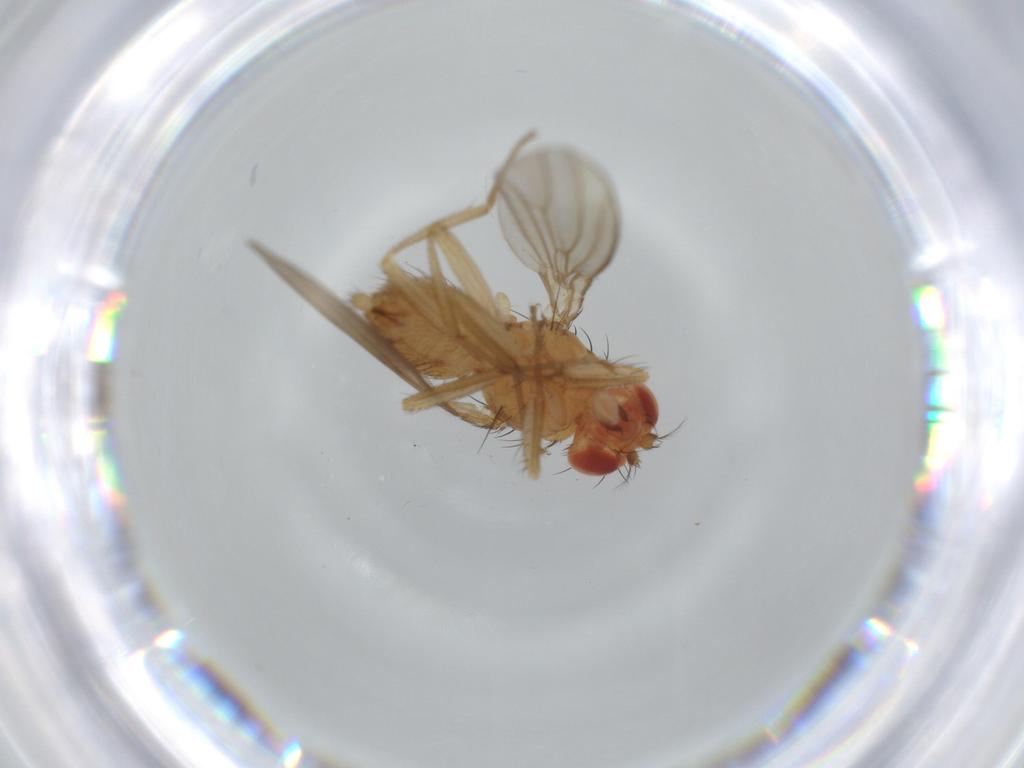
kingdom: Animalia
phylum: Arthropoda
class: Insecta
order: Diptera
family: Drosophilidae
